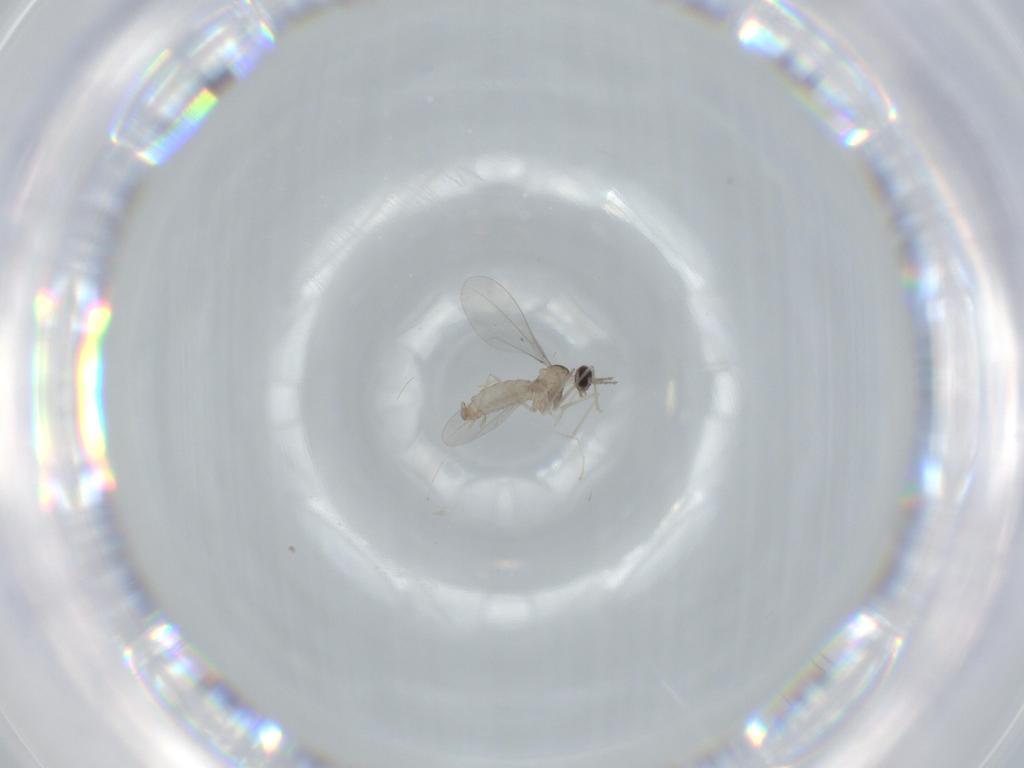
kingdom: Animalia
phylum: Arthropoda
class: Insecta
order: Diptera
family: Cecidomyiidae
